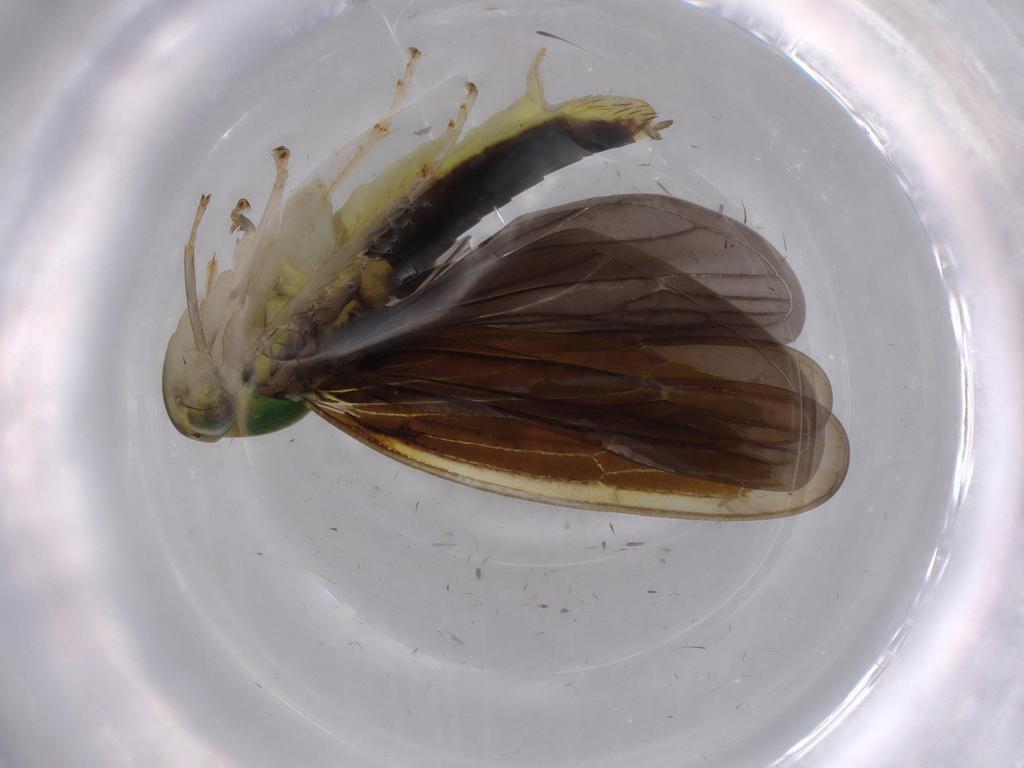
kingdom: Animalia
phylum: Arthropoda
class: Insecta
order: Hemiptera
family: Cicadellidae
